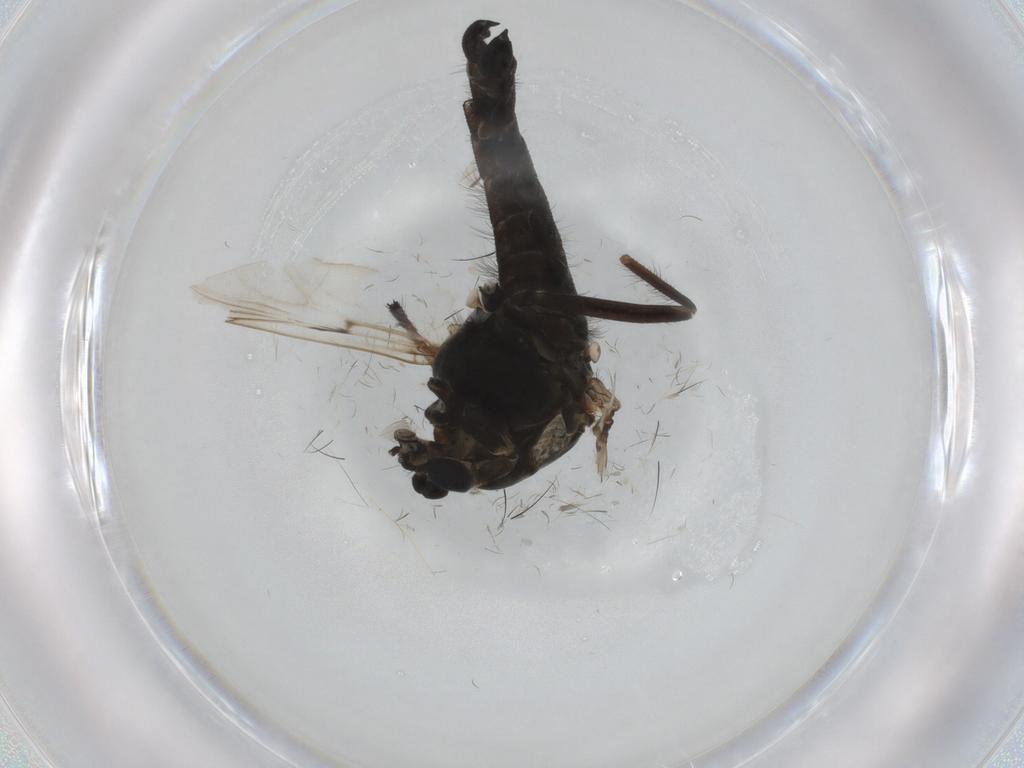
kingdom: Animalia
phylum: Arthropoda
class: Insecta
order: Diptera
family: Chironomidae
